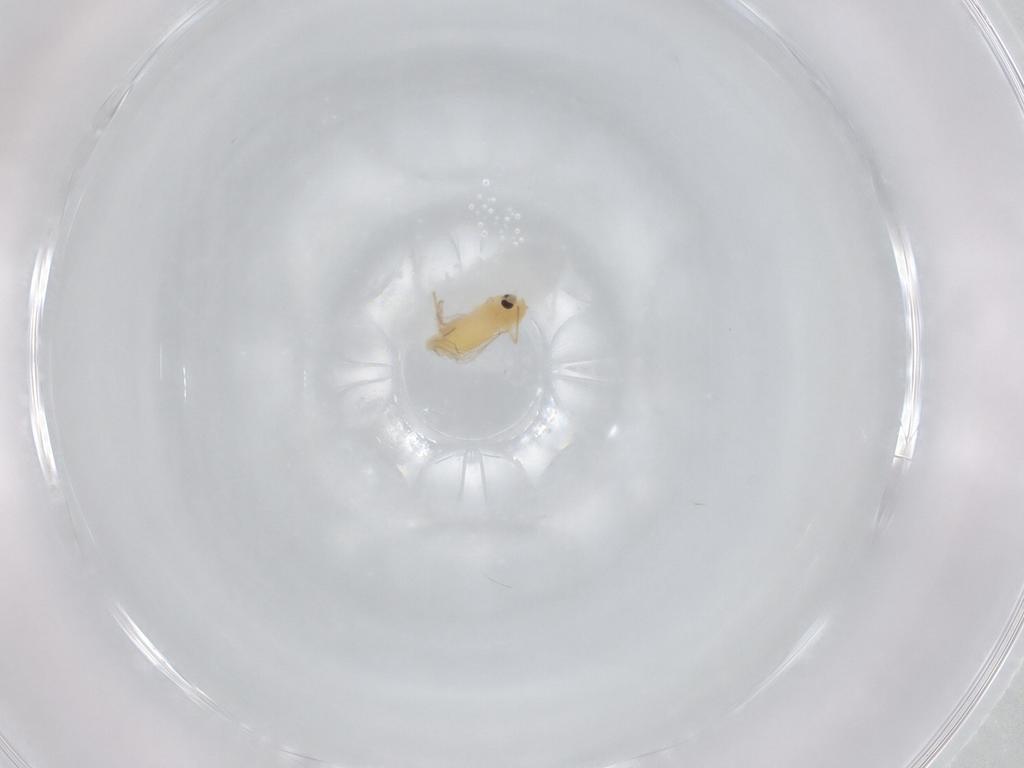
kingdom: Animalia
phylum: Arthropoda
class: Insecta
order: Diptera
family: Chironomidae
